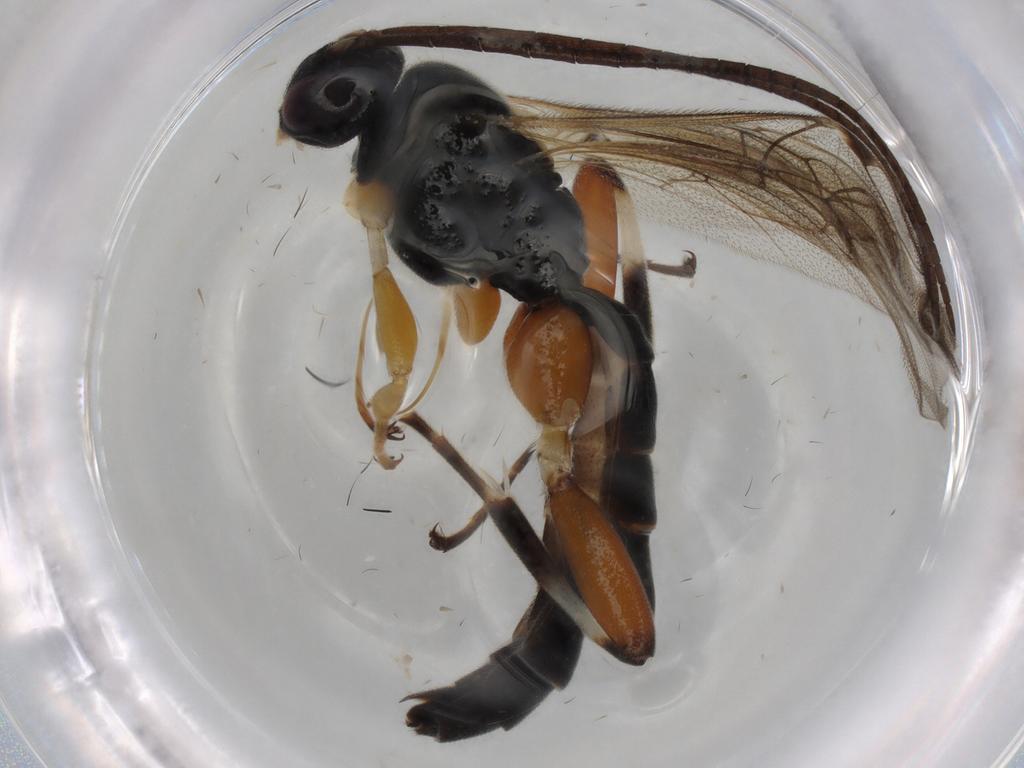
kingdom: Animalia
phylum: Arthropoda
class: Insecta
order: Hymenoptera
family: Ichneumonidae
